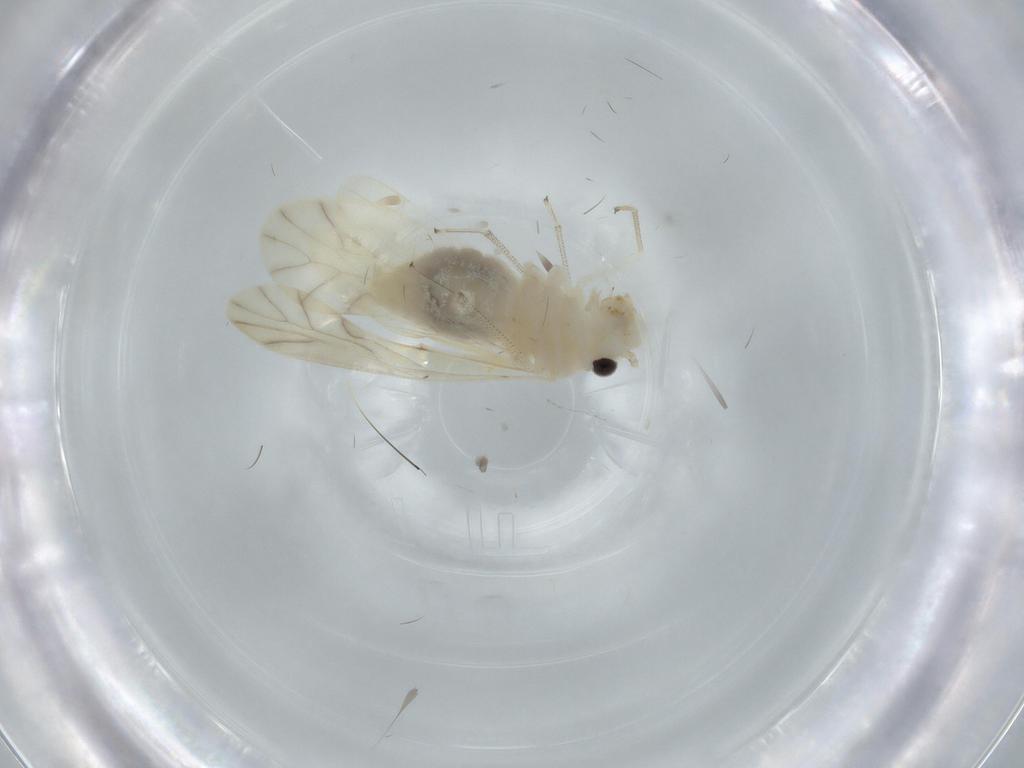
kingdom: Animalia
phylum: Arthropoda
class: Insecta
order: Psocodea
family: Caeciliusidae
